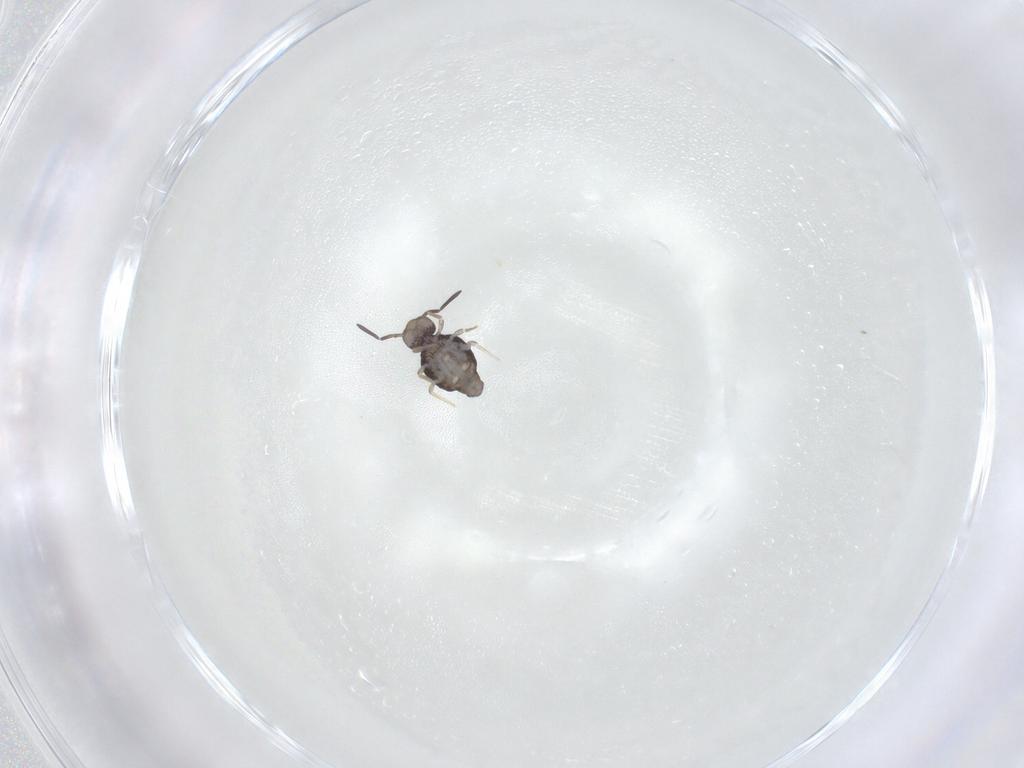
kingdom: Animalia
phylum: Arthropoda
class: Collembola
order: Symphypleona
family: Katiannidae
